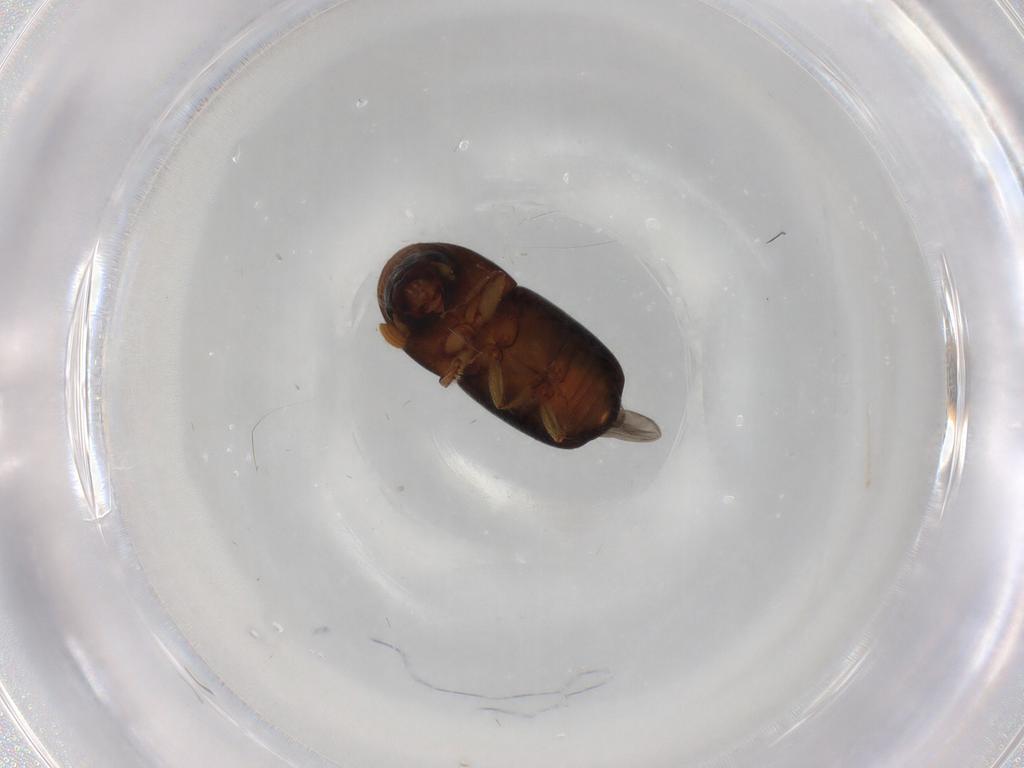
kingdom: Animalia
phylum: Arthropoda
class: Insecta
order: Coleoptera
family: Curculionidae
